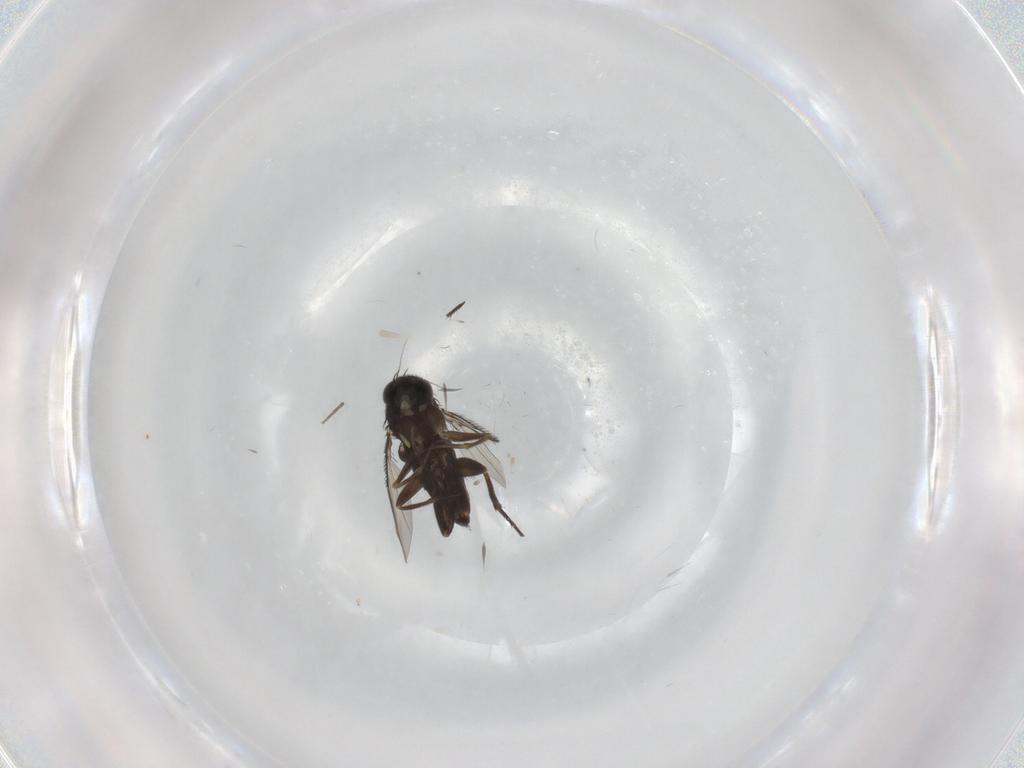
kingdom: Animalia
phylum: Arthropoda
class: Insecta
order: Diptera
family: Phoridae
